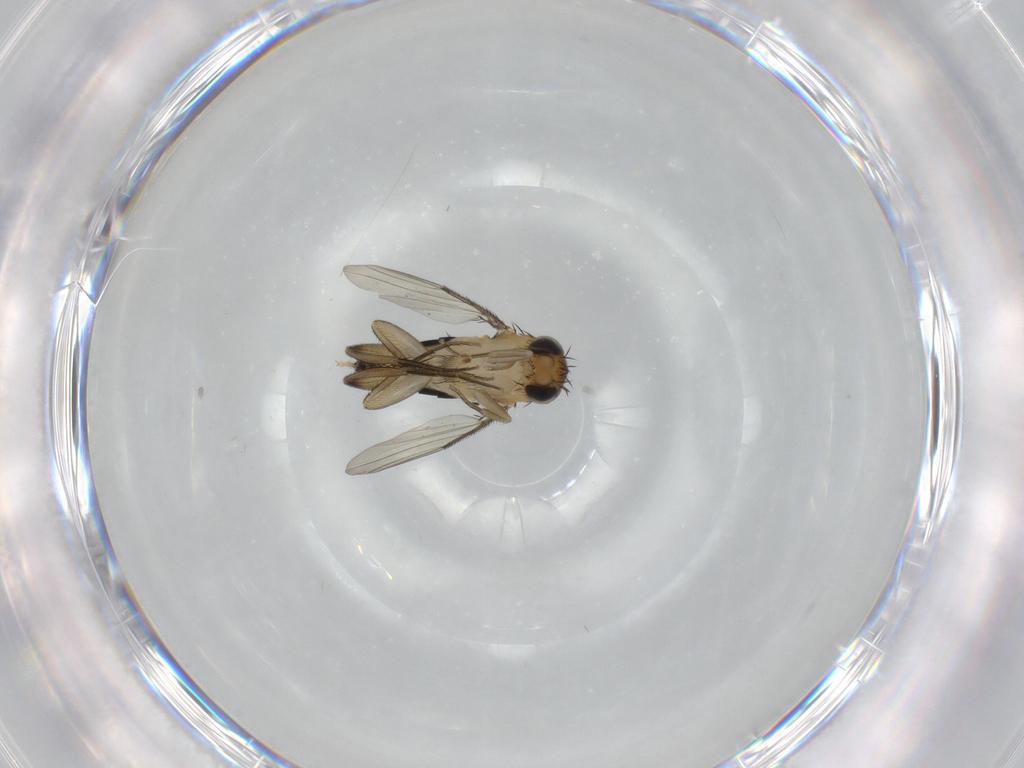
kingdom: Animalia
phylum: Arthropoda
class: Insecta
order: Diptera
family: Phoridae
